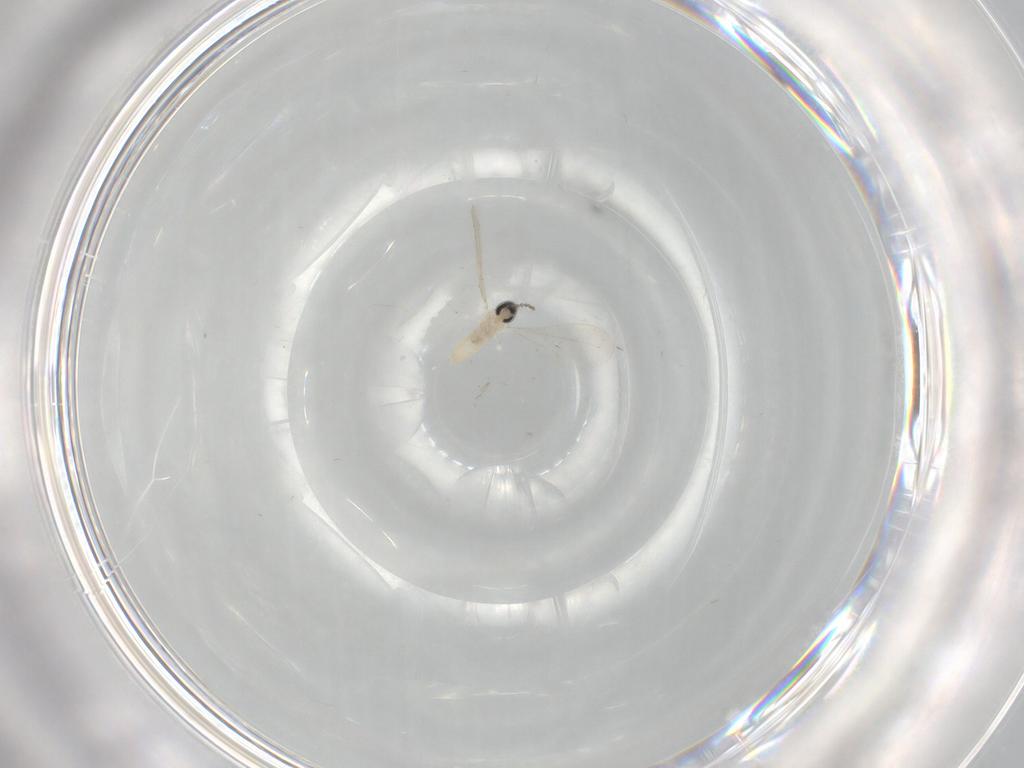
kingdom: Animalia
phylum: Arthropoda
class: Insecta
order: Diptera
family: Cecidomyiidae
